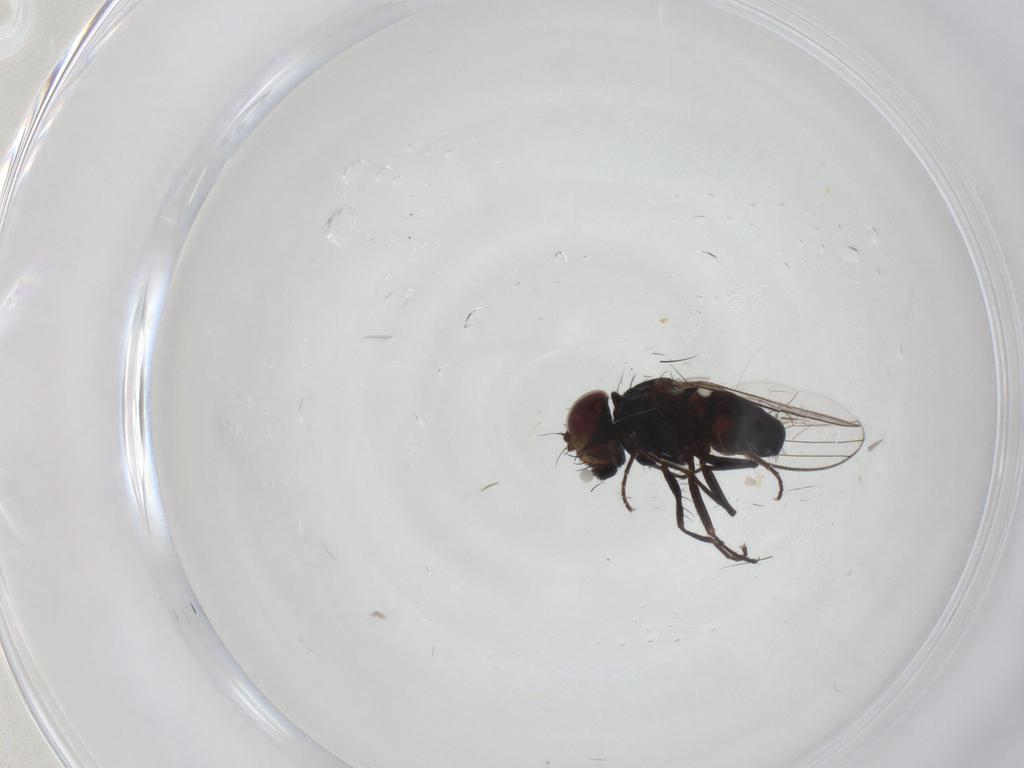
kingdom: Animalia
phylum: Arthropoda
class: Insecta
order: Diptera
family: Carnidae
